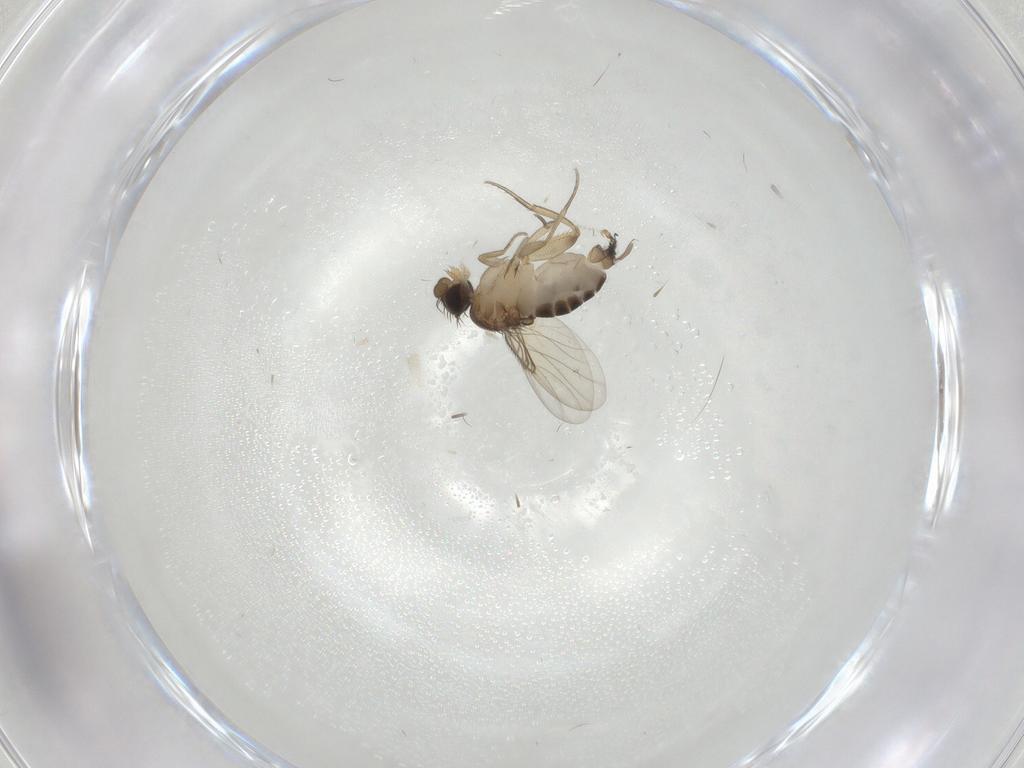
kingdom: Animalia
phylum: Arthropoda
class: Insecta
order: Diptera
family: Phoridae
